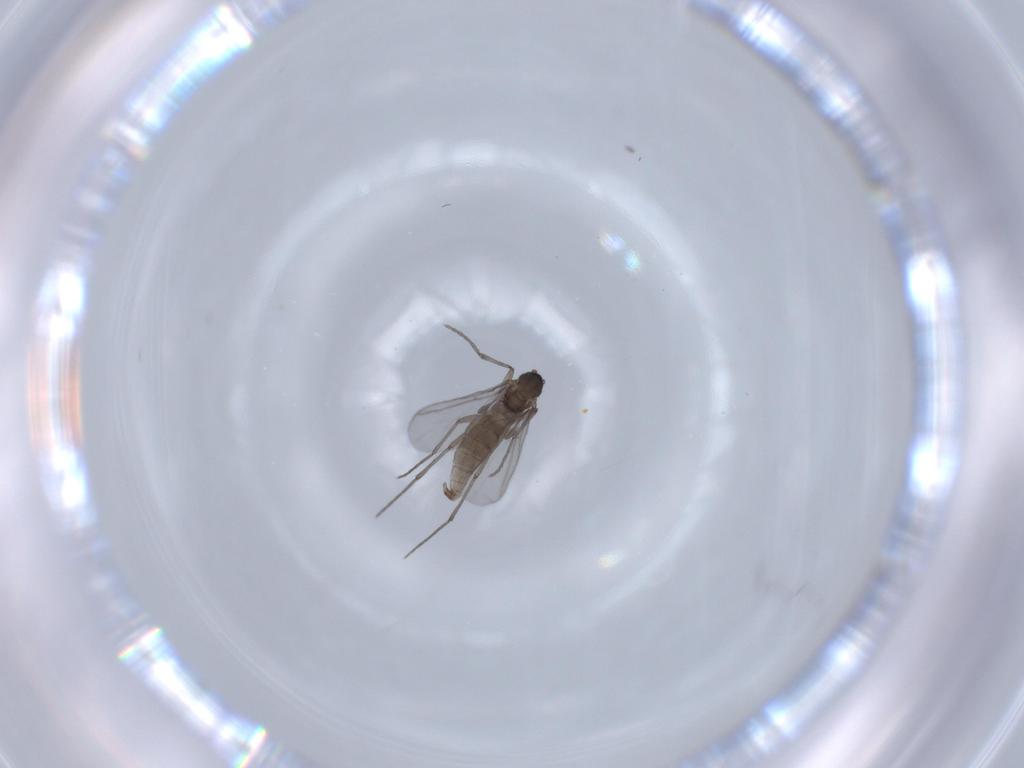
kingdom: Animalia
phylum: Arthropoda
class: Insecta
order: Diptera
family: Sciaridae
